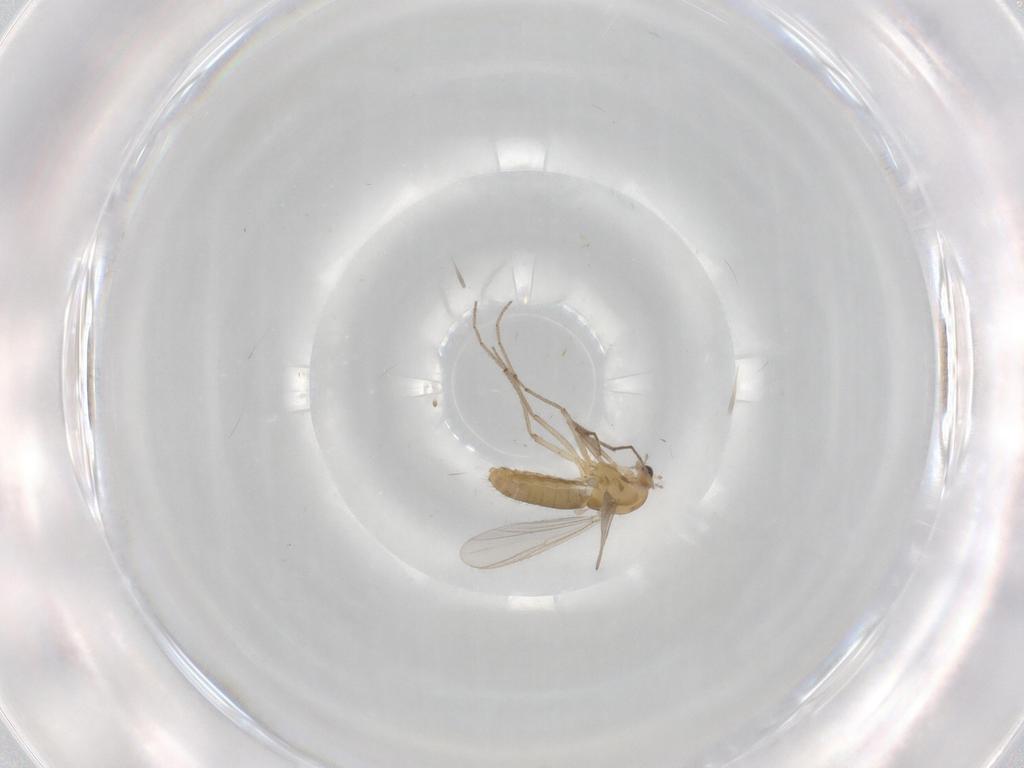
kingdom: Animalia
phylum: Arthropoda
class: Insecta
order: Diptera
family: Chironomidae
